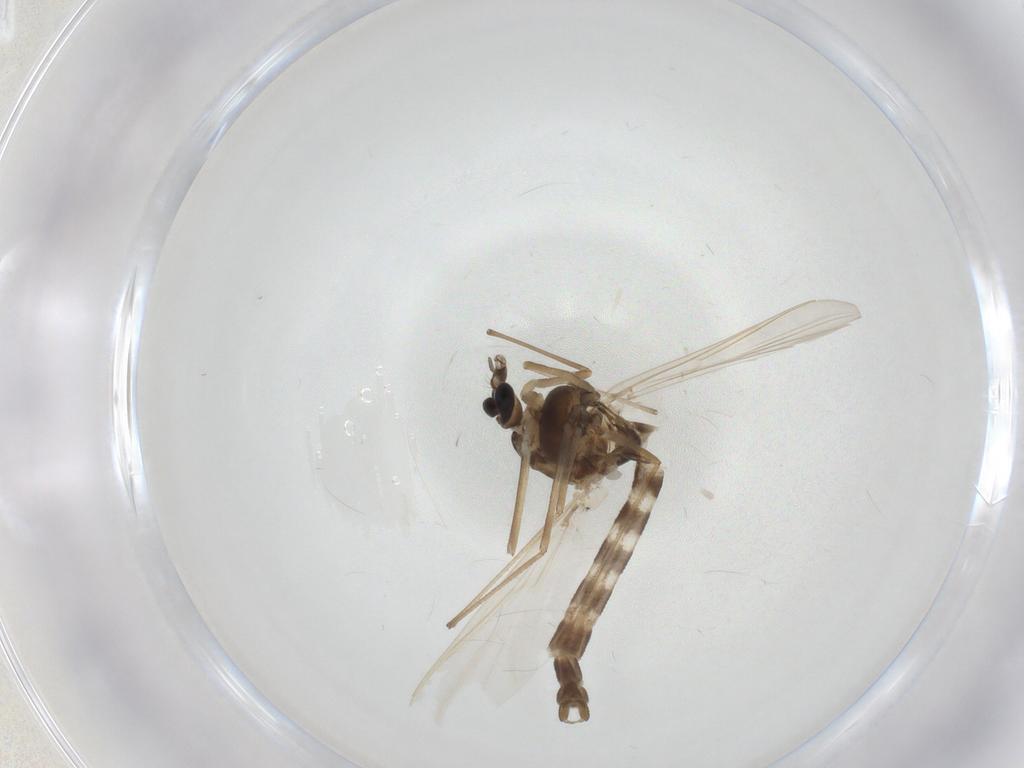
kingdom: Animalia
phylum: Arthropoda
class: Insecta
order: Diptera
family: Chironomidae
